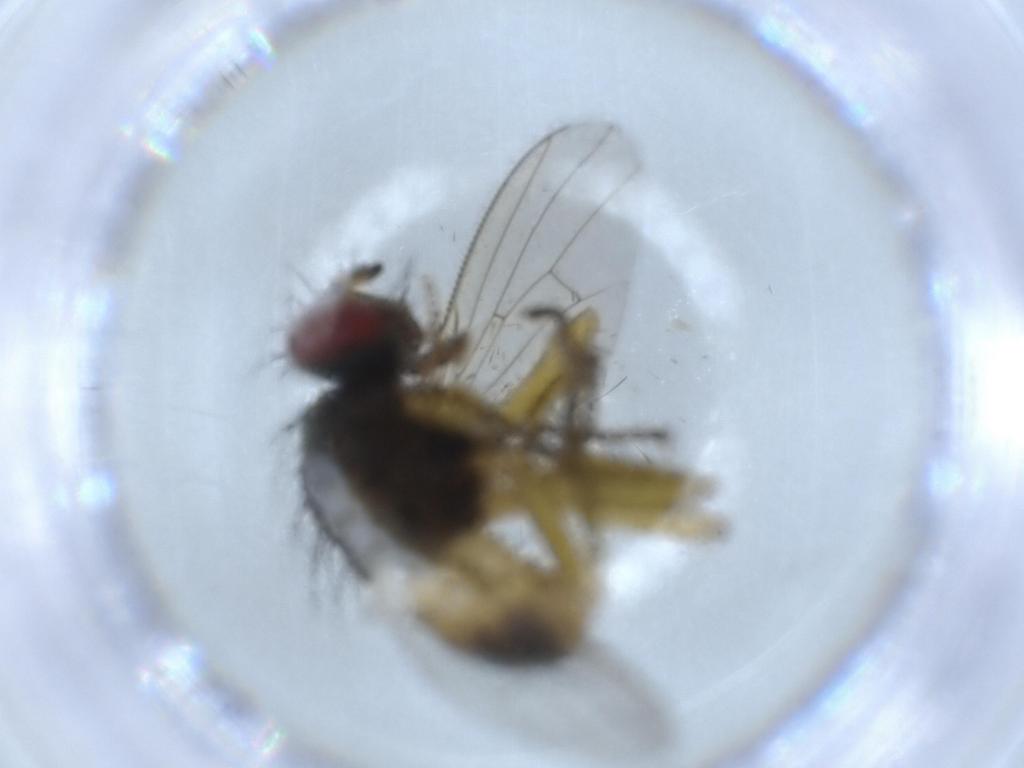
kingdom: Animalia
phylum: Arthropoda
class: Insecta
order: Diptera
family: Muscidae
